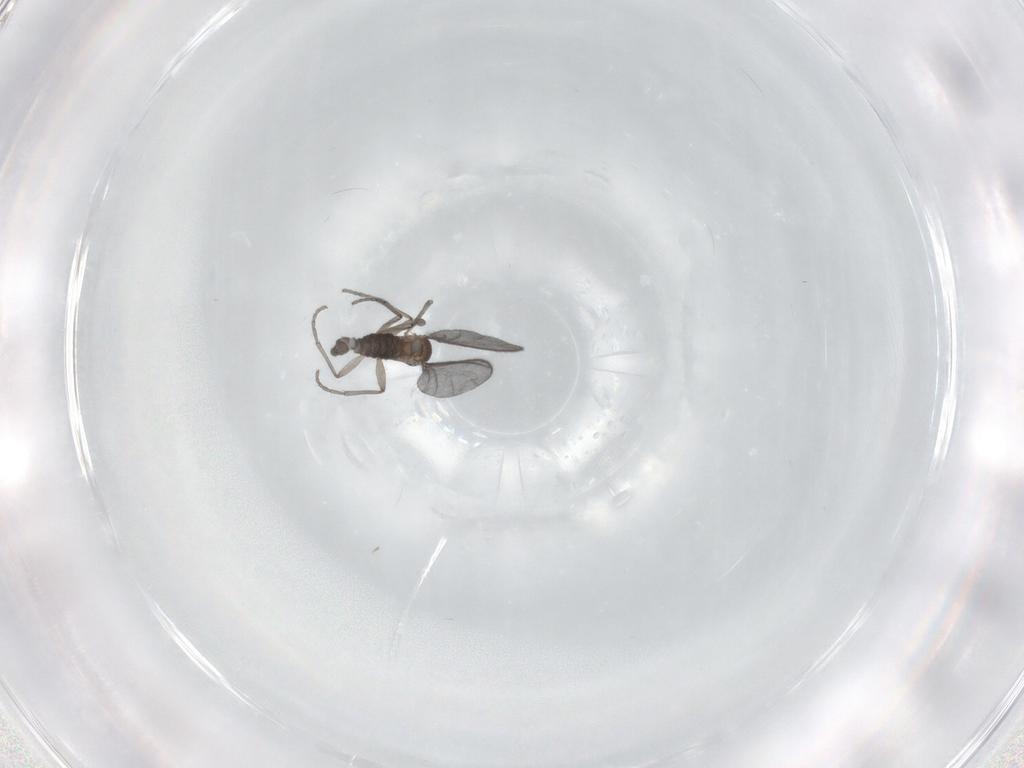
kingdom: Animalia
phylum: Arthropoda
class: Insecta
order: Diptera
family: Sciaridae
